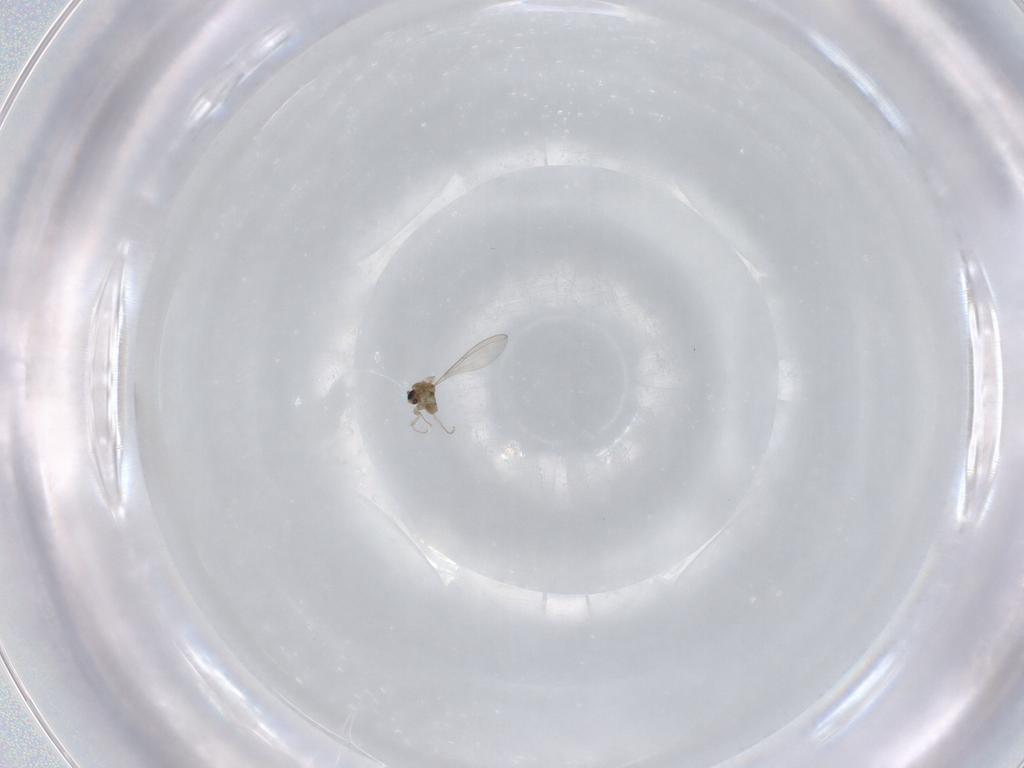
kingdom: Animalia
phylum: Arthropoda
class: Insecta
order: Diptera
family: Cecidomyiidae
